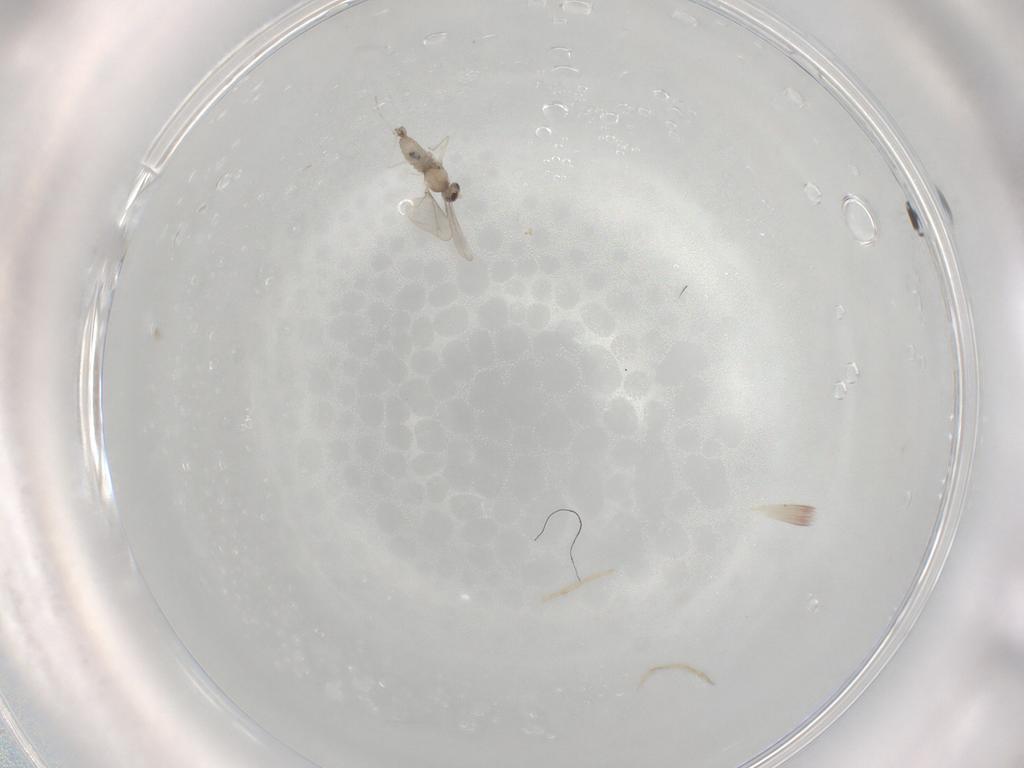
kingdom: Animalia
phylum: Arthropoda
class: Insecta
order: Diptera
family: Cecidomyiidae
